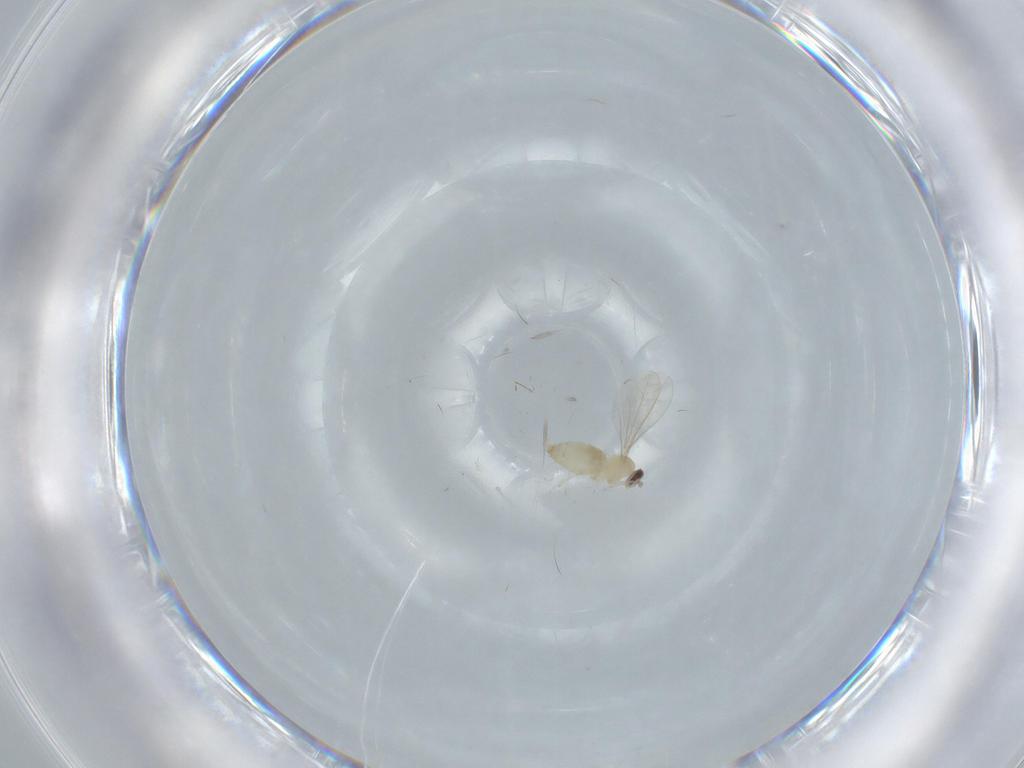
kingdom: Animalia
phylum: Arthropoda
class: Insecta
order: Diptera
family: Cecidomyiidae
